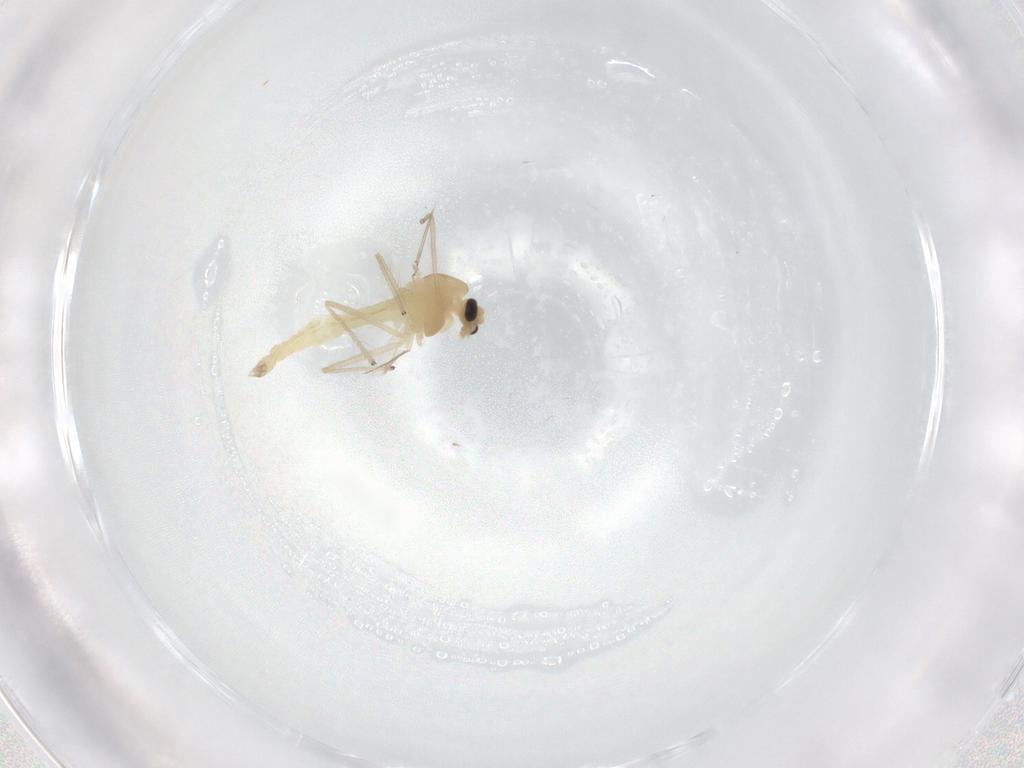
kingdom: Animalia
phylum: Arthropoda
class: Insecta
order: Diptera
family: Chironomidae
